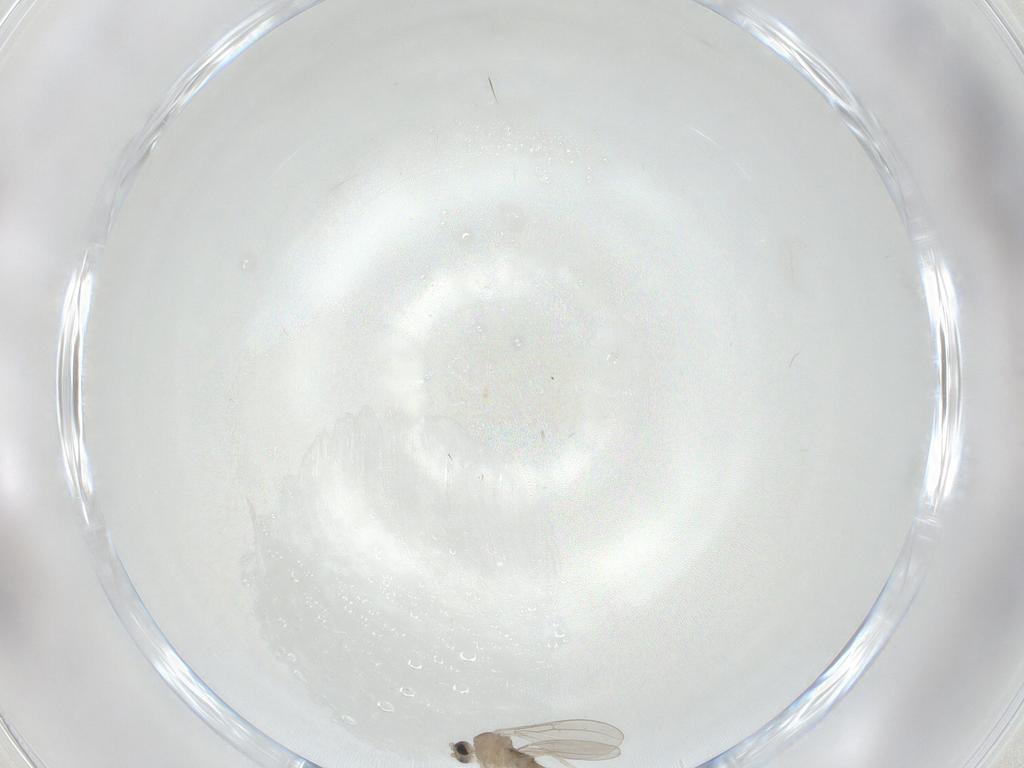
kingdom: Animalia
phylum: Arthropoda
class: Insecta
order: Diptera
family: Cecidomyiidae
